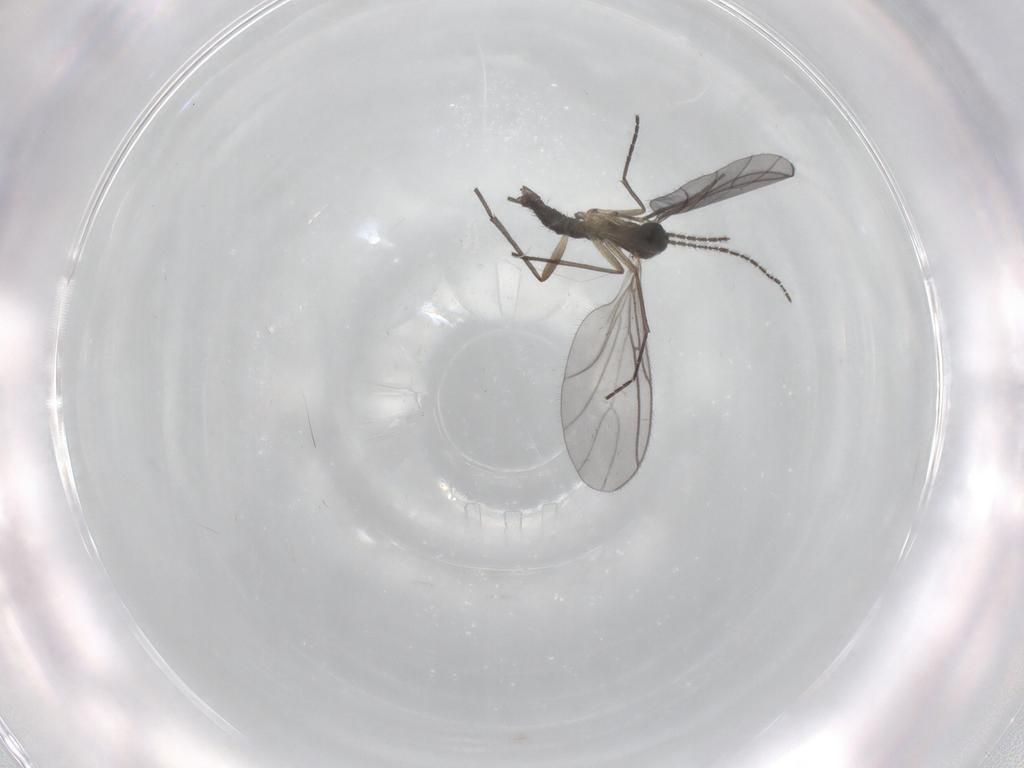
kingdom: Animalia
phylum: Arthropoda
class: Insecta
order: Diptera
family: Sciaridae
